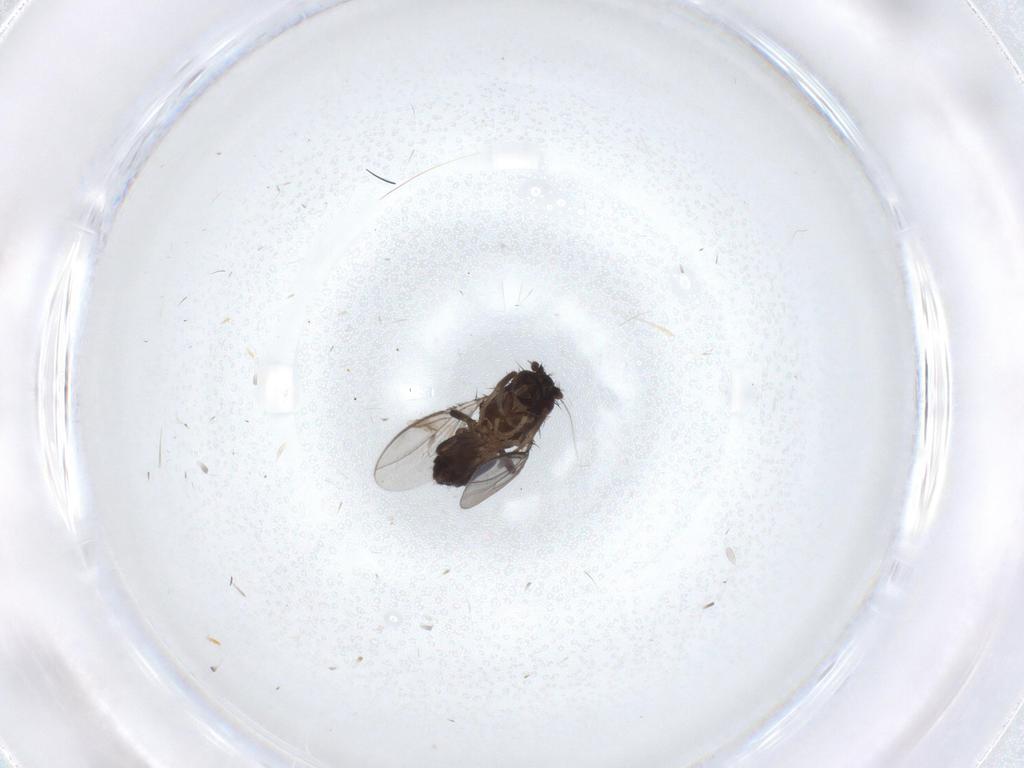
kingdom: Animalia
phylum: Arthropoda
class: Insecta
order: Diptera
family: Sphaeroceridae
